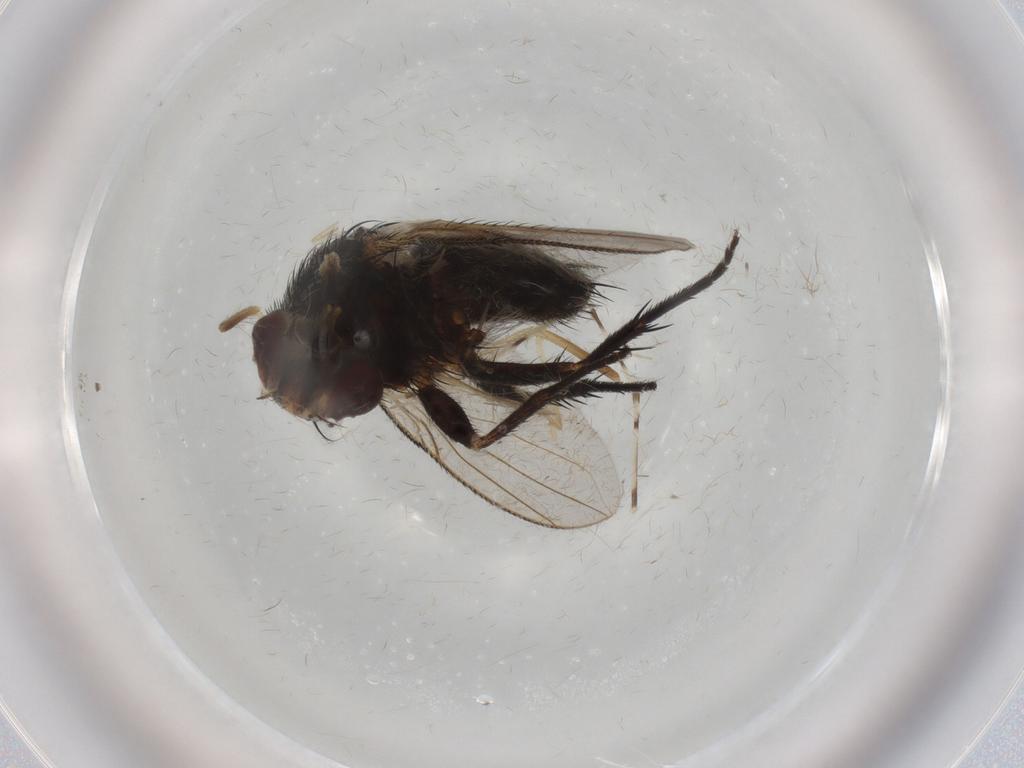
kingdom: Animalia
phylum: Arthropoda
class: Insecta
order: Diptera
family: Tachinidae
